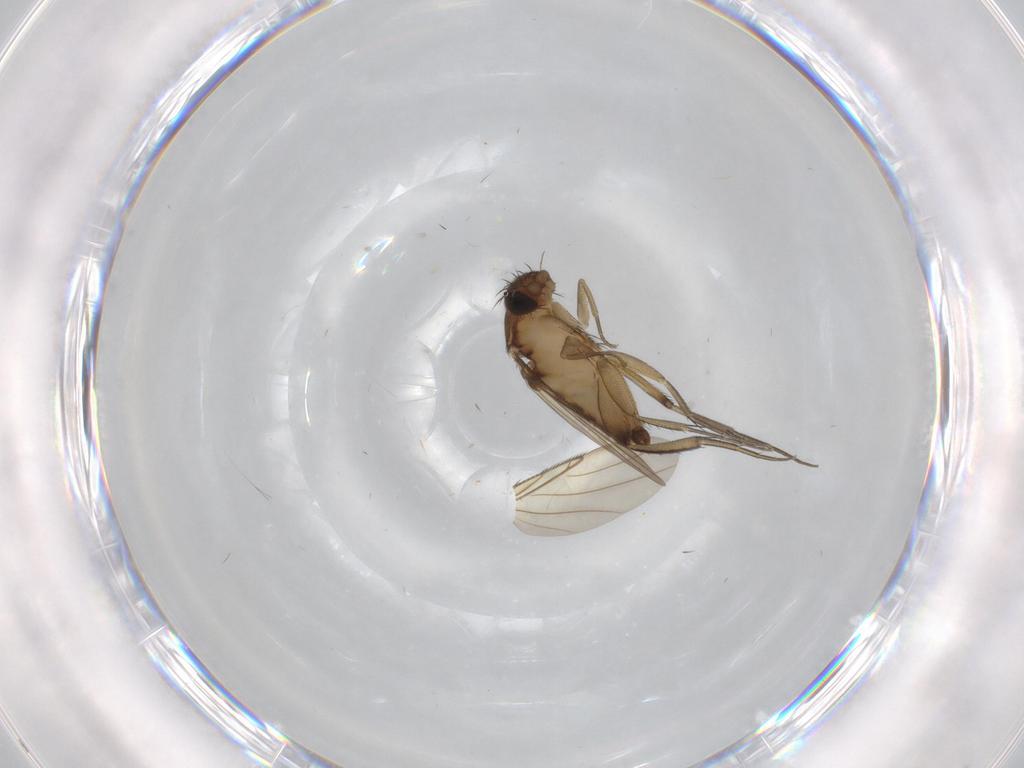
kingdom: Animalia
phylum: Arthropoda
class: Insecta
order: Diptera
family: Phoridae
